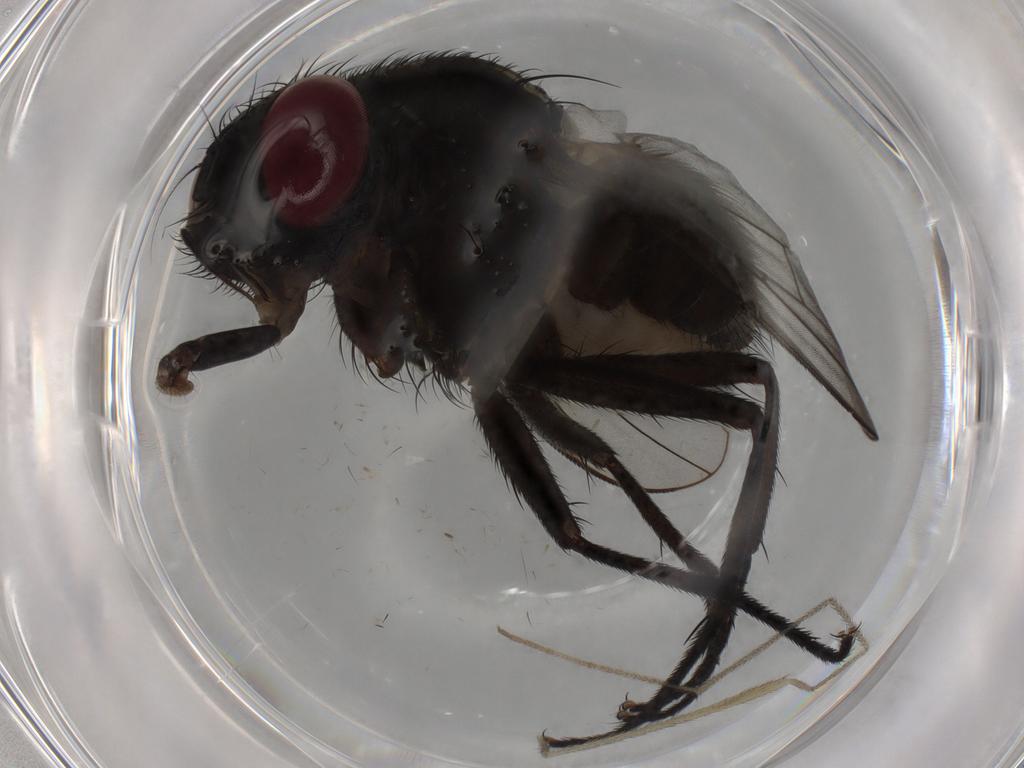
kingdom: Animalia
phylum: Arthropoda
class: Insecta
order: Diptera
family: Muscidae
